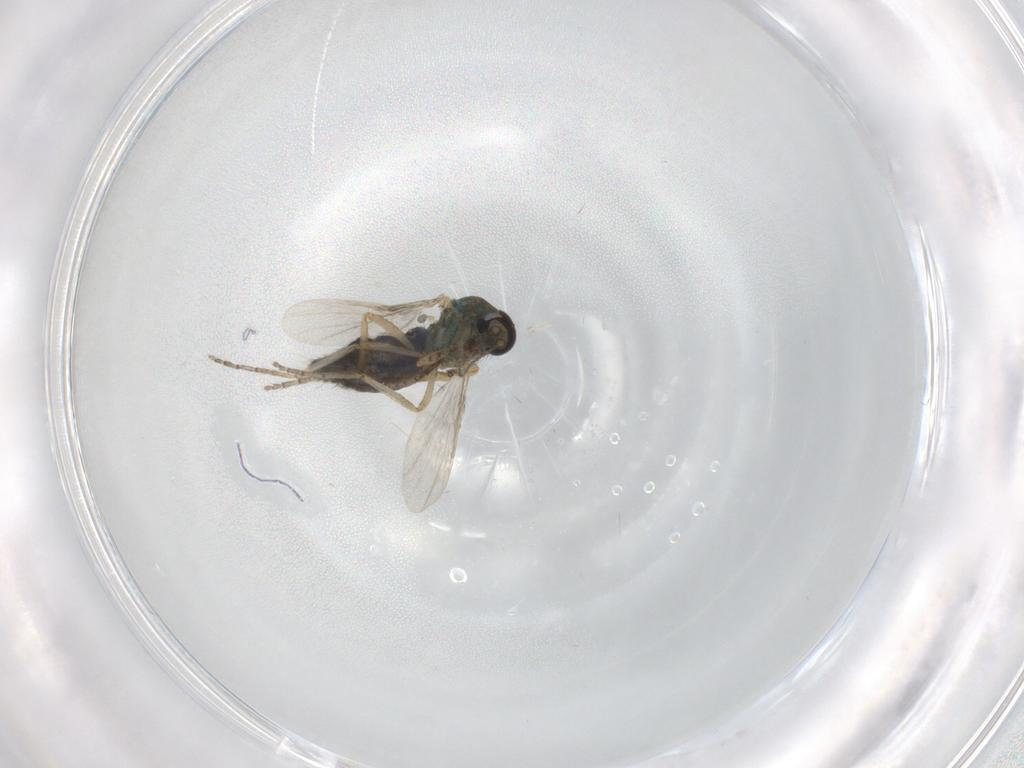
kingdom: Animalia
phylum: Arthropoda
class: Insecta
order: Diptera
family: Ceratopogonidae
